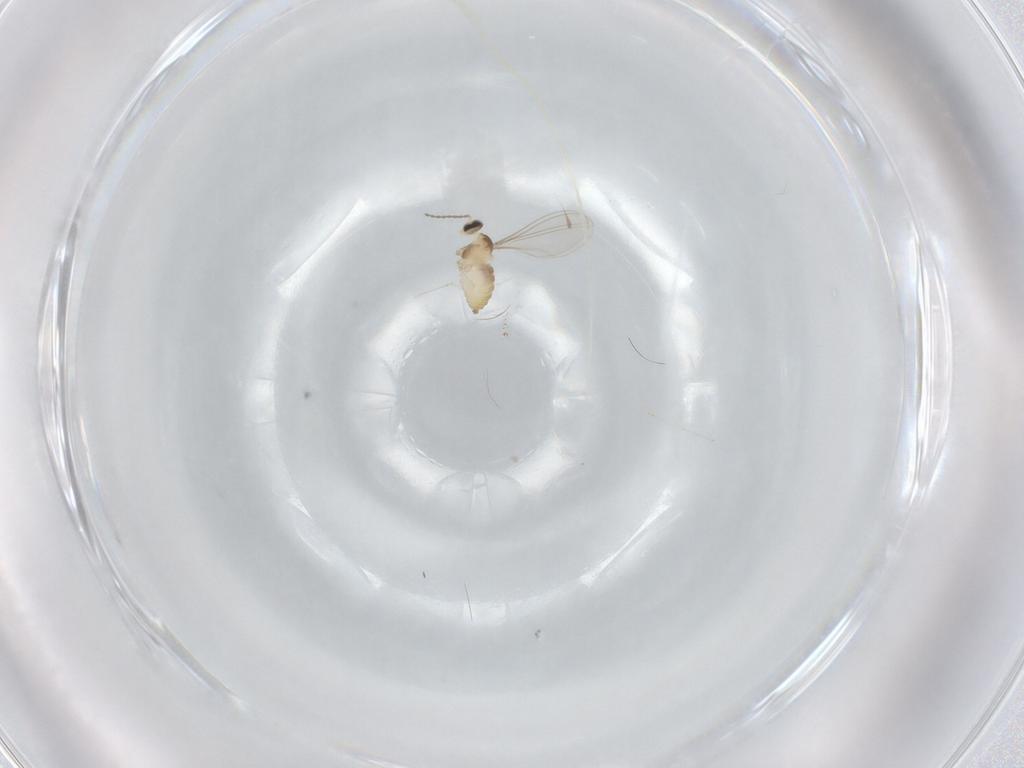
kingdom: Animalia
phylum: Arthropoda
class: Insecta
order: Diptera
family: Cecidomyiidae
